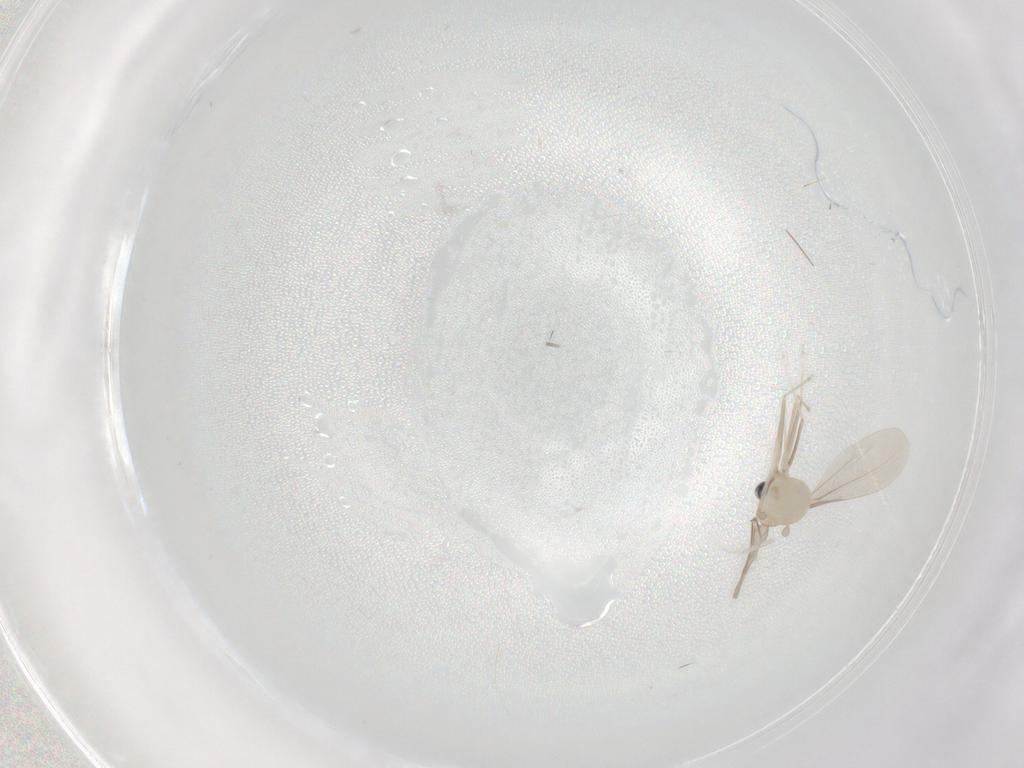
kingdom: Animalia
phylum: Arthropoda
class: Insecta
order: Diptera
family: Cecidomyiidae
